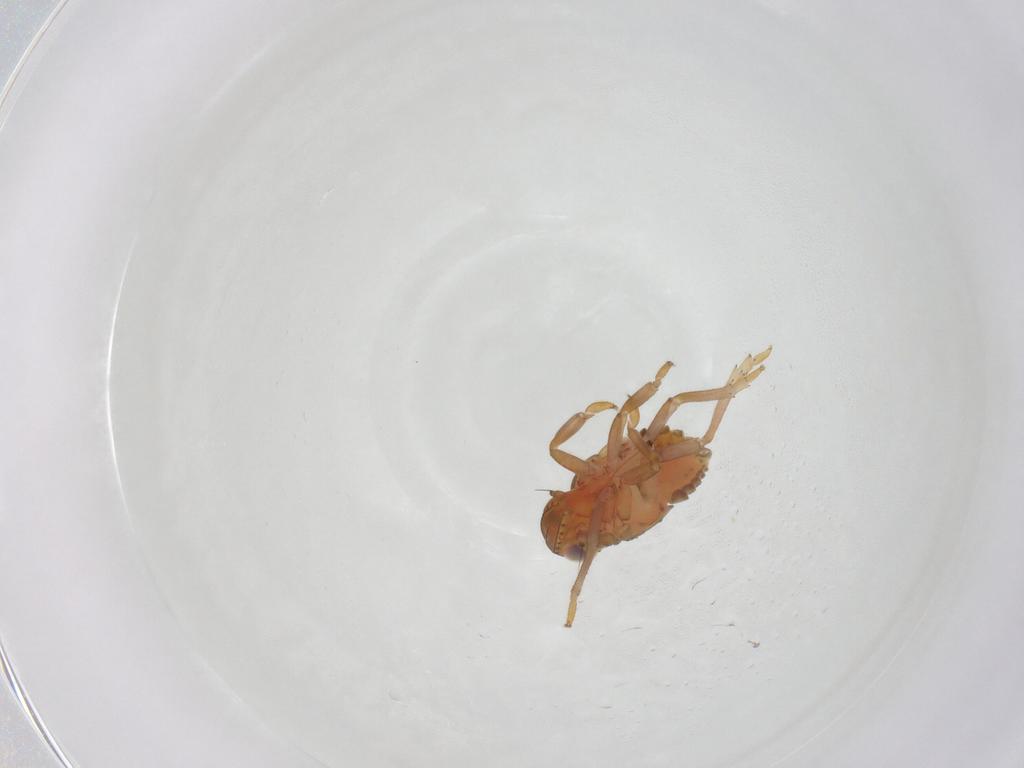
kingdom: Animalia
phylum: Arthropoda
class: Insecta
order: Hemiptera
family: Issidae
